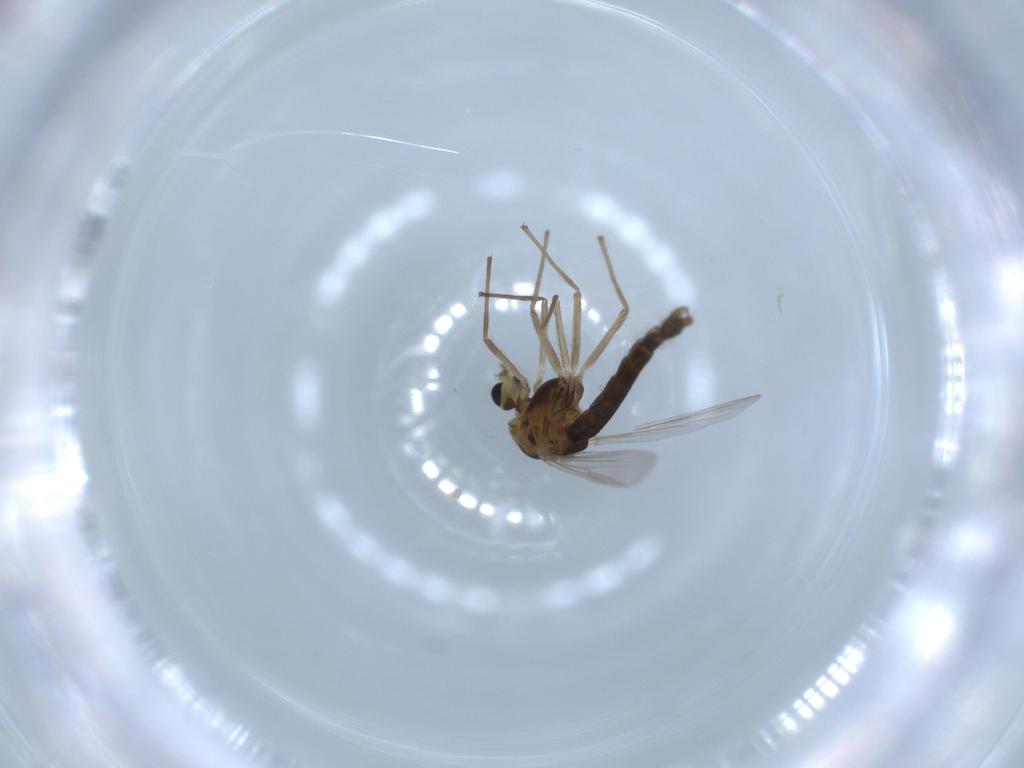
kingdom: Animalia
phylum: Arthropoda
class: Insecta
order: Diptera
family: Chironomidae
